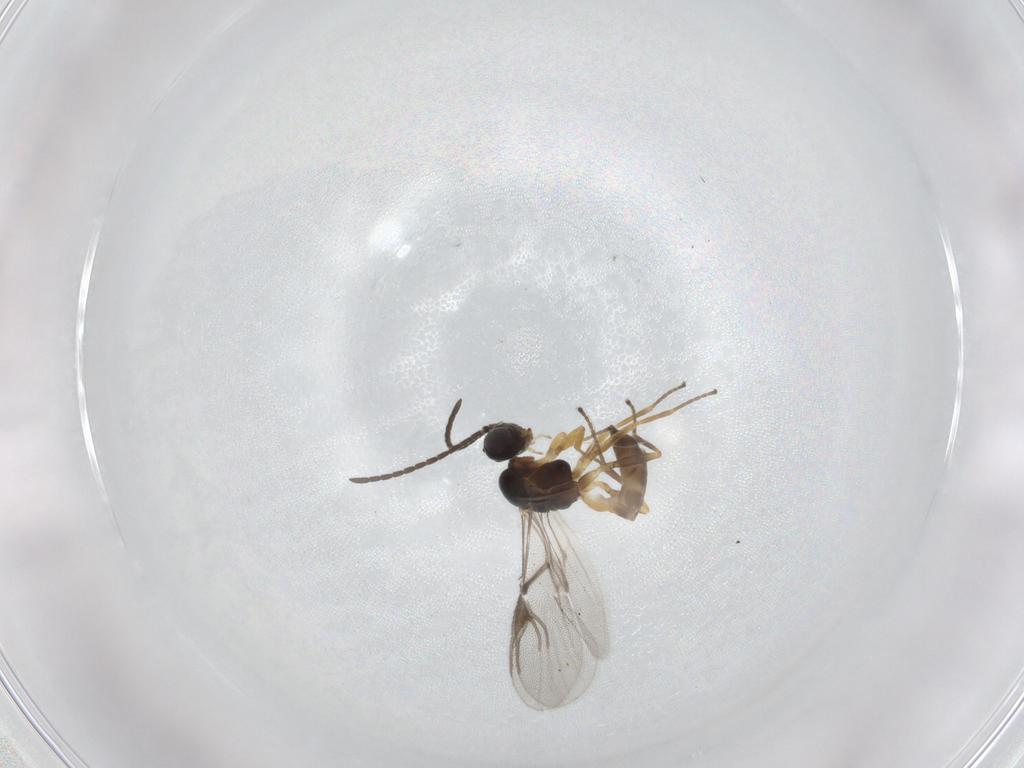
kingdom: Animalia
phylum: Arthropoda
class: Insecta
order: Hymenoptera
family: Braconidae
